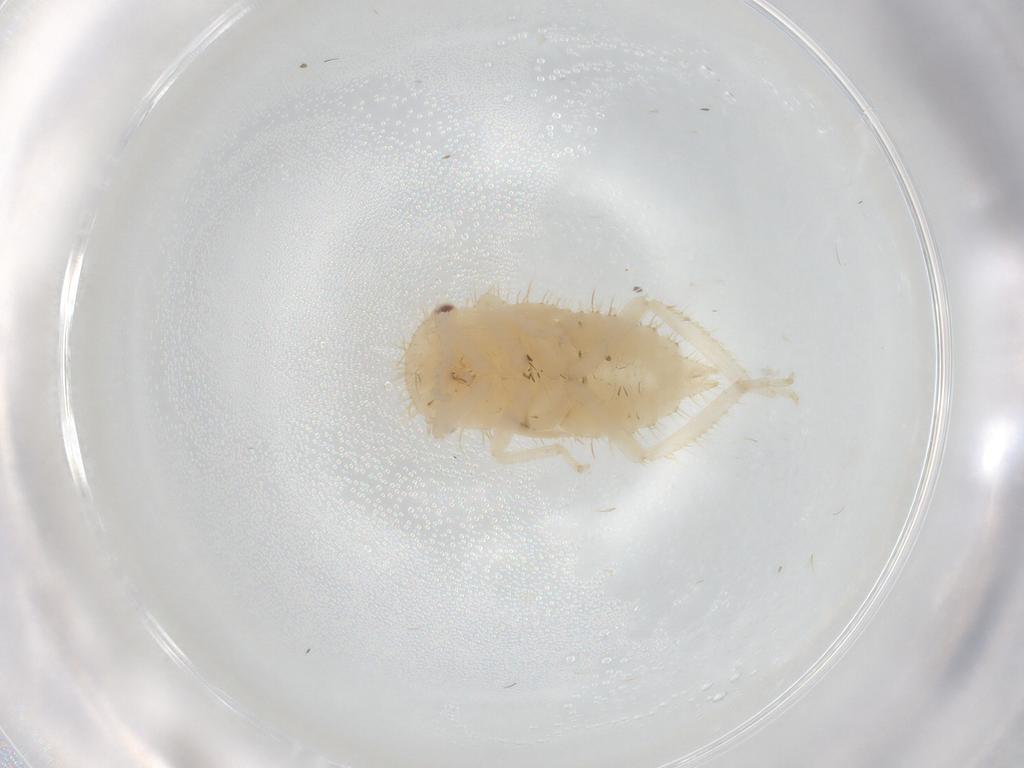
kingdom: Animalia
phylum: Arthropoda
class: Insecta
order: Hemiptera
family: Cicadellidae
